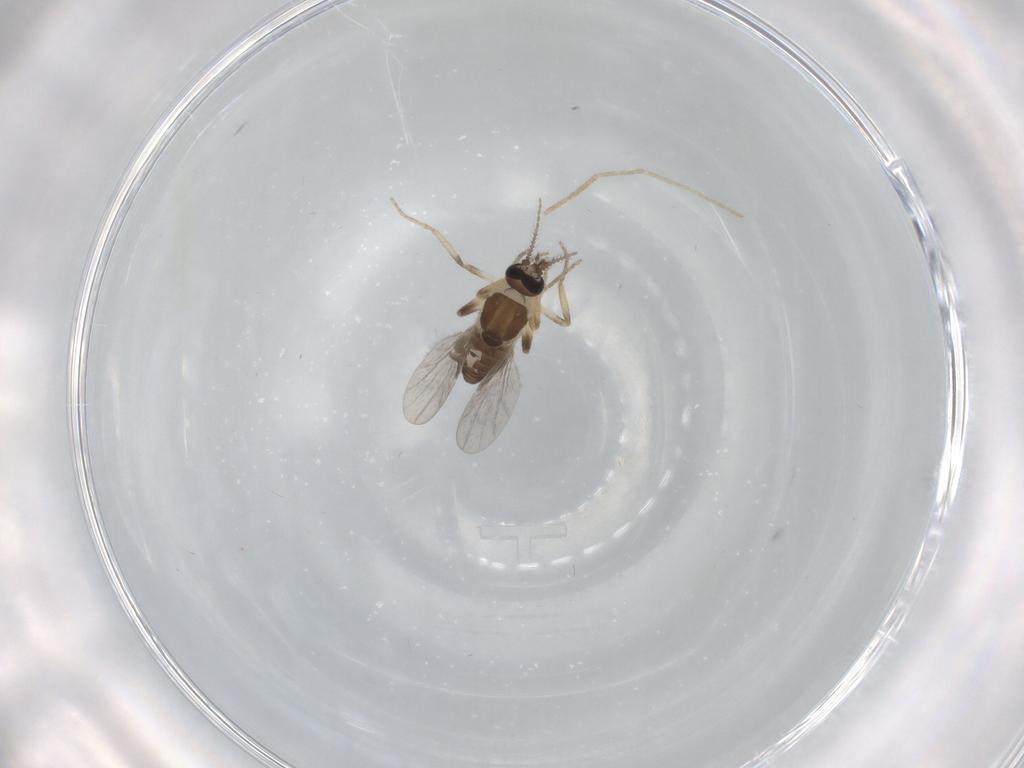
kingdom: Animalia
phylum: Arthropoda
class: Insecta
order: Diptera
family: Ceratopogonidae
